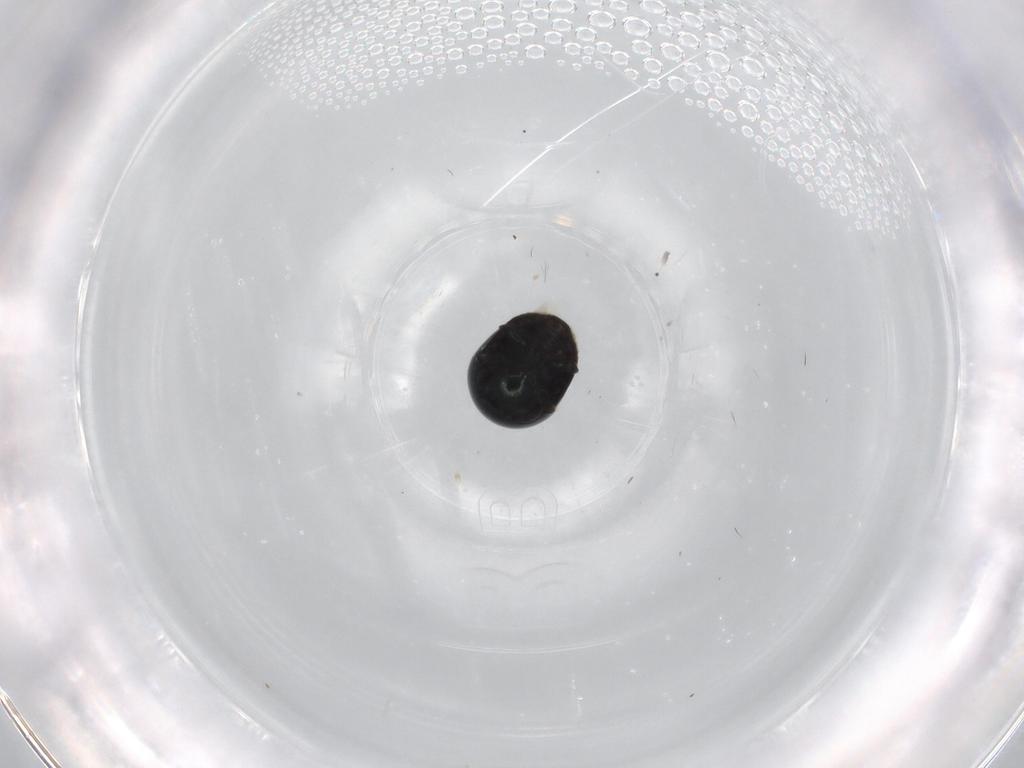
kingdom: Animalia
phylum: Arthropoda
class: Insecta
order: Coleoptera
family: Cybocephalidae
